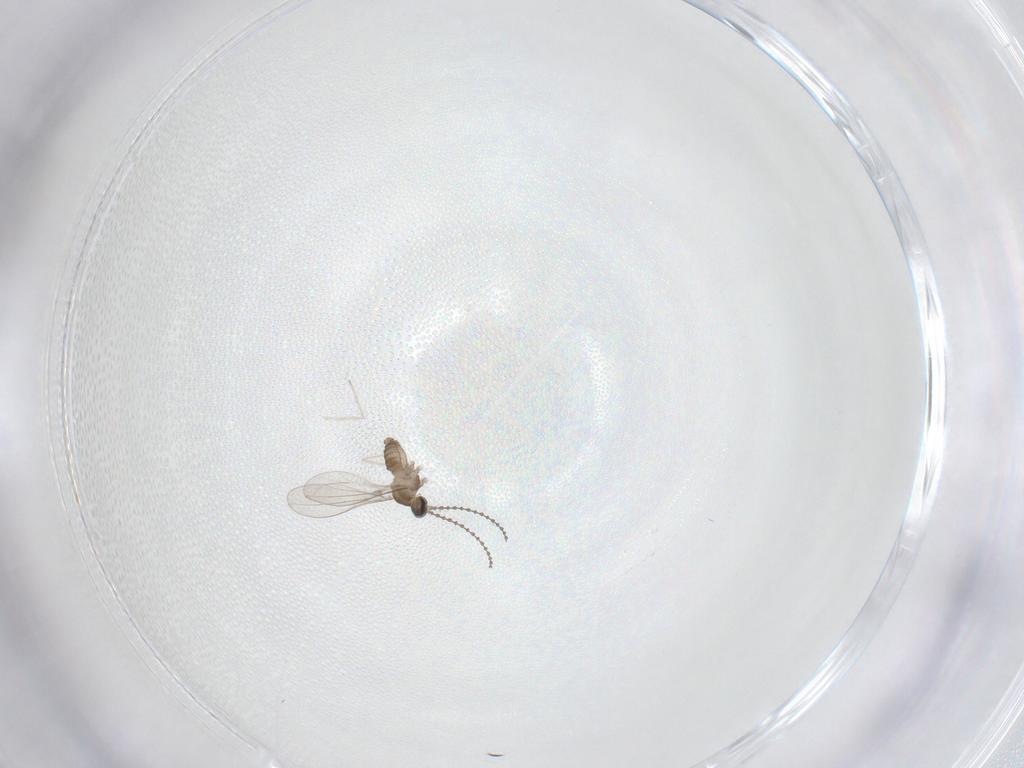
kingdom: Animalia
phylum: Arthropoda
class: Insecta
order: Diptera
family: Cecidomyiidae
